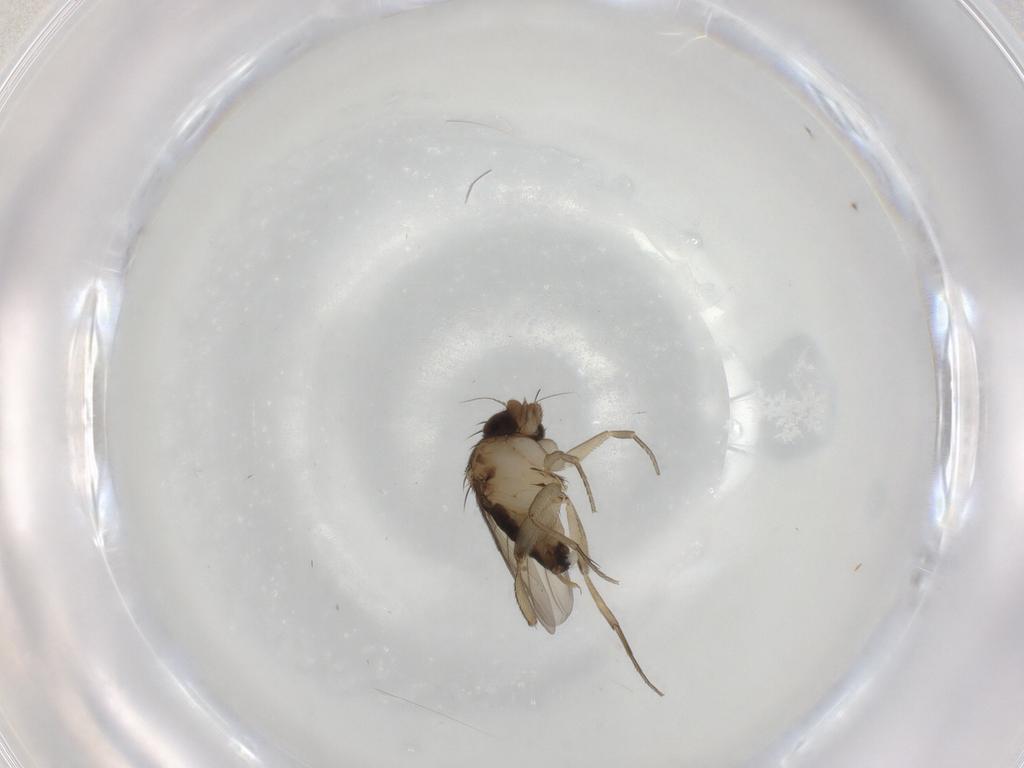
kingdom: Animalia
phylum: Arthropoda
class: Insecta
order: Diptera
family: Phoridae
